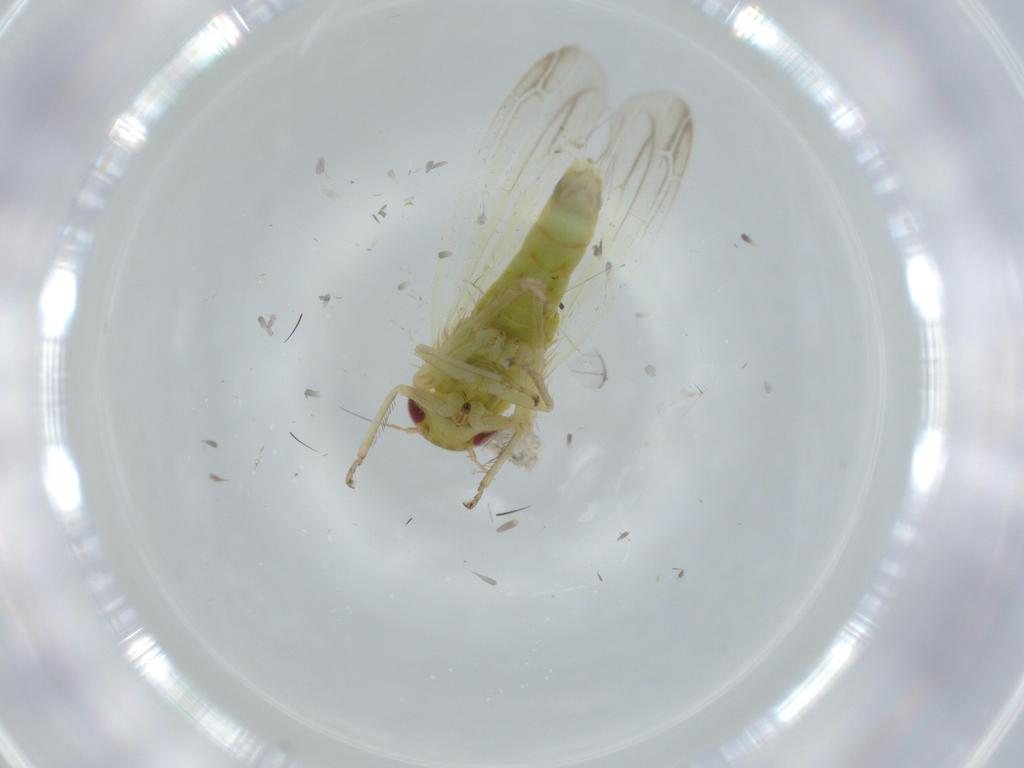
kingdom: Animalia
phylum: Arthropoda
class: Insecta
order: Hemiptera
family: Cicadellidae
